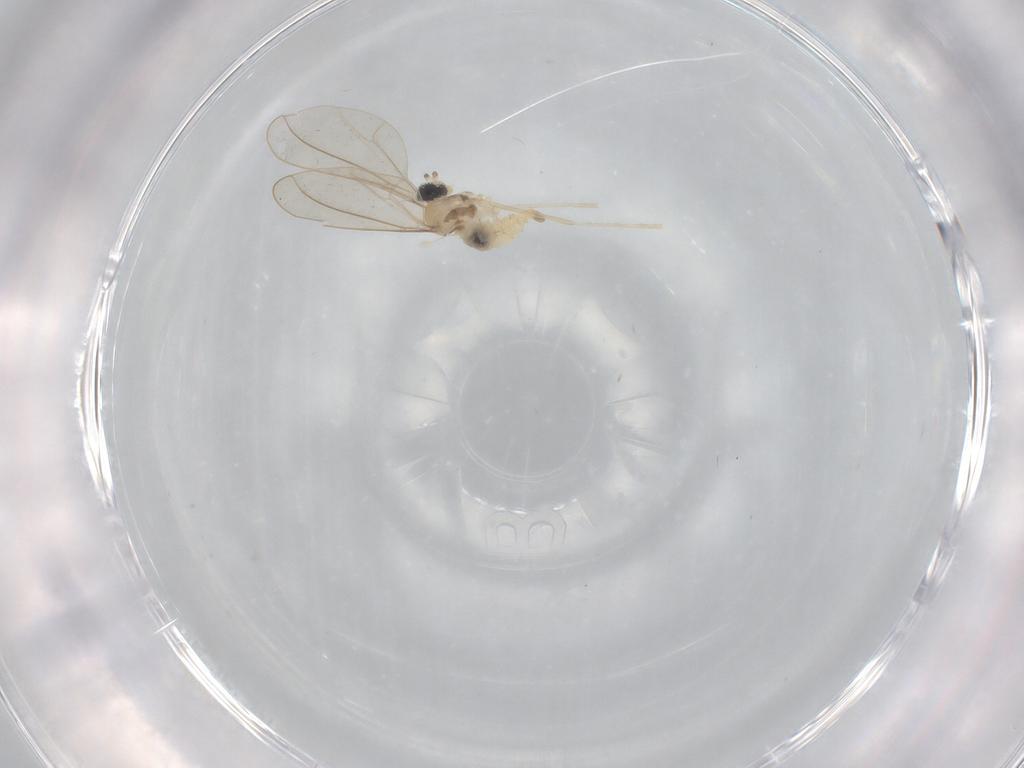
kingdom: Animalia
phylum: Arthropoda
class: Insecta
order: Diptera
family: Cecidomyiidae
